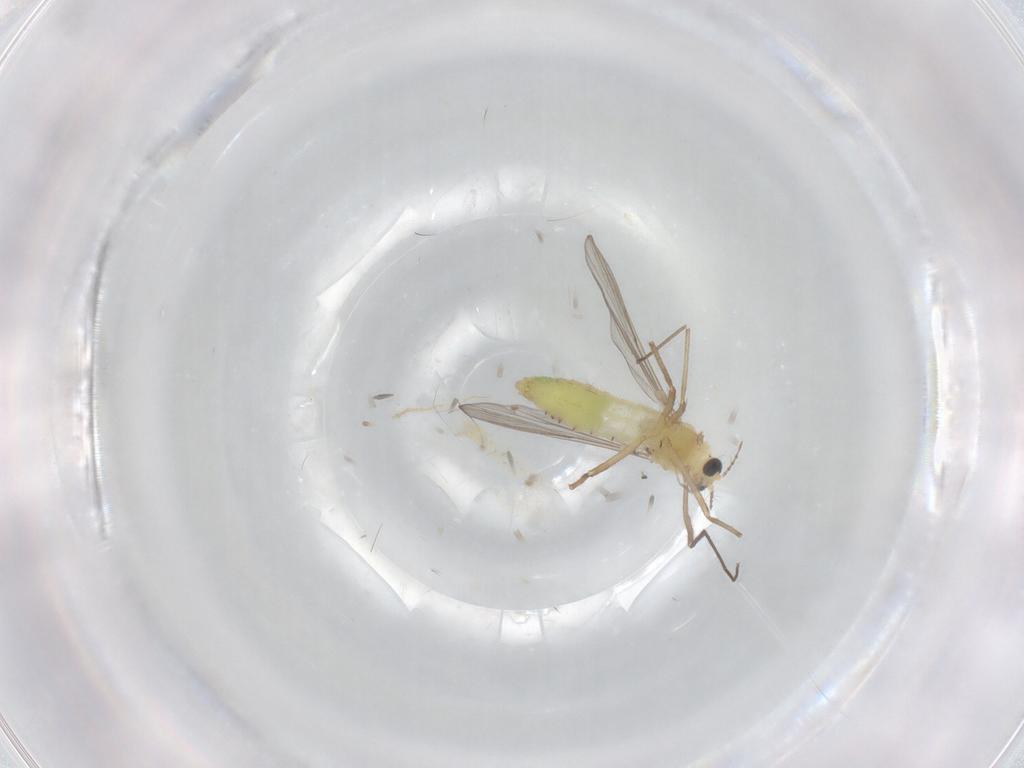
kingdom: Animalia
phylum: Arthropoda
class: Insecta
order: Diptera
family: Chironomidae
